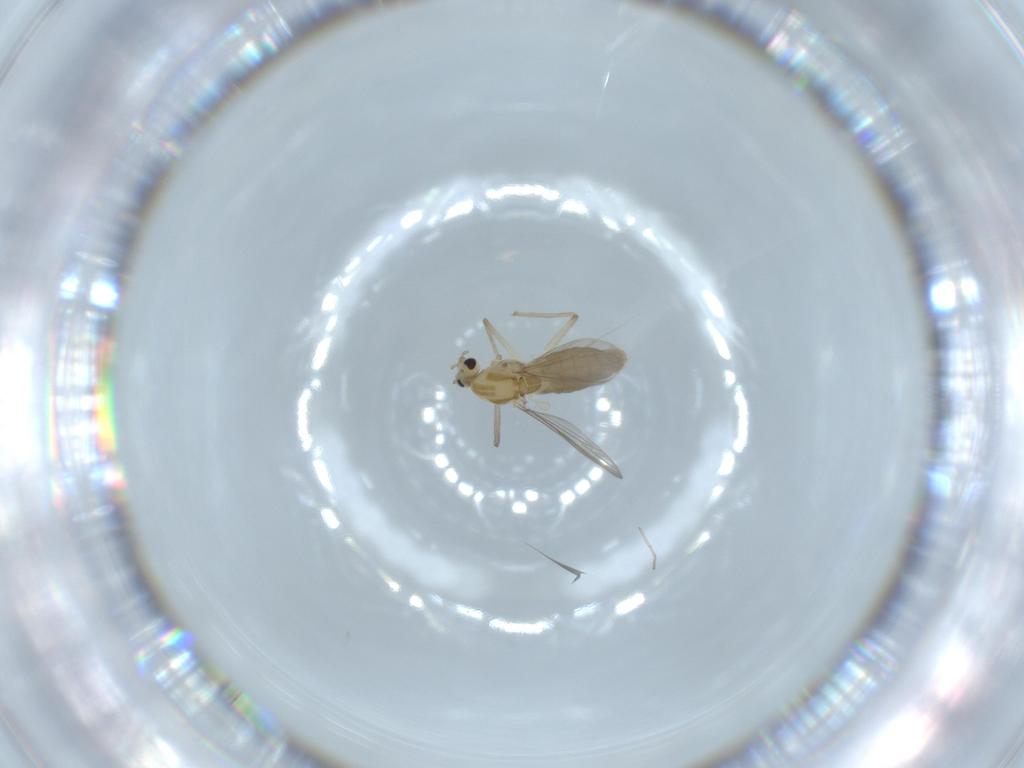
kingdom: Animalia
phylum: Arthropoda
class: Insecta
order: Diptera
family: Chironomidae
